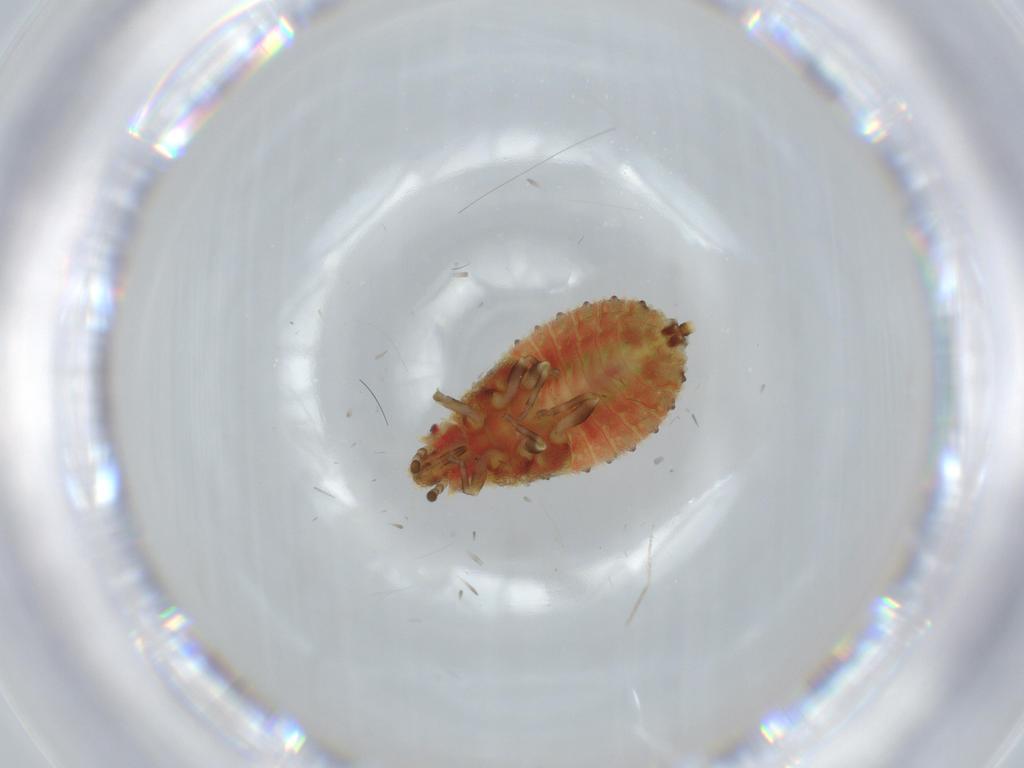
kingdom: Animalia
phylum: Arthropoda
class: Insecta
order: Hemiptera
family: Aradidae
